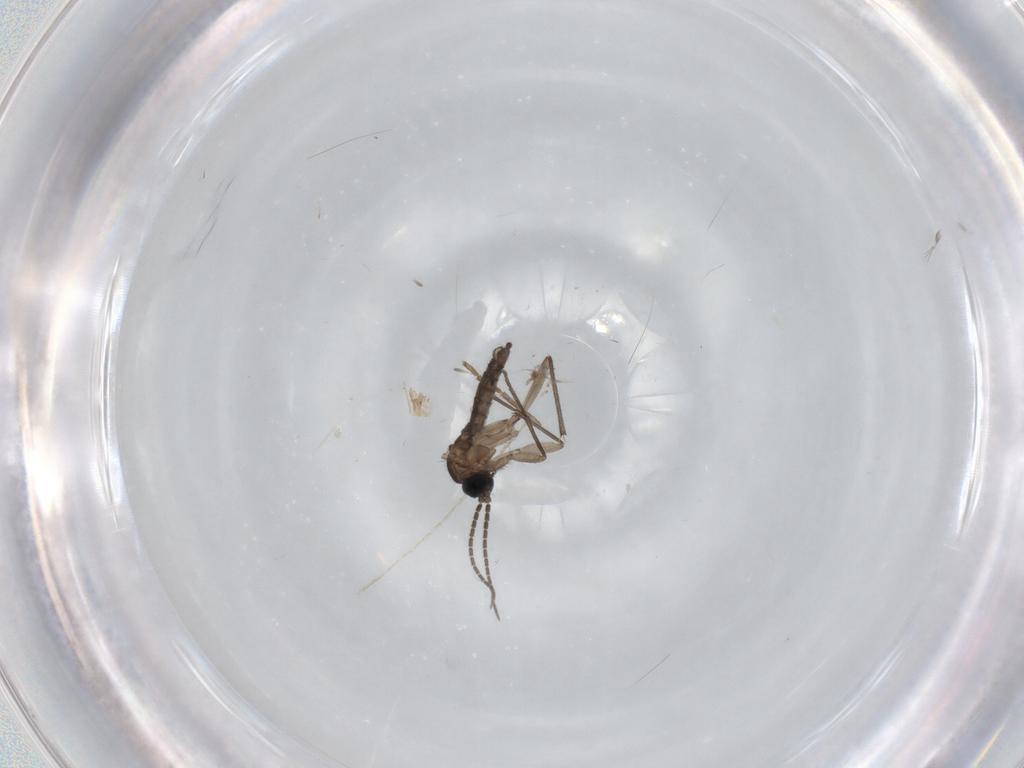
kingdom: Animalia
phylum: Arthropoda
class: Insecta
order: Diptera
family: Sciaridae
